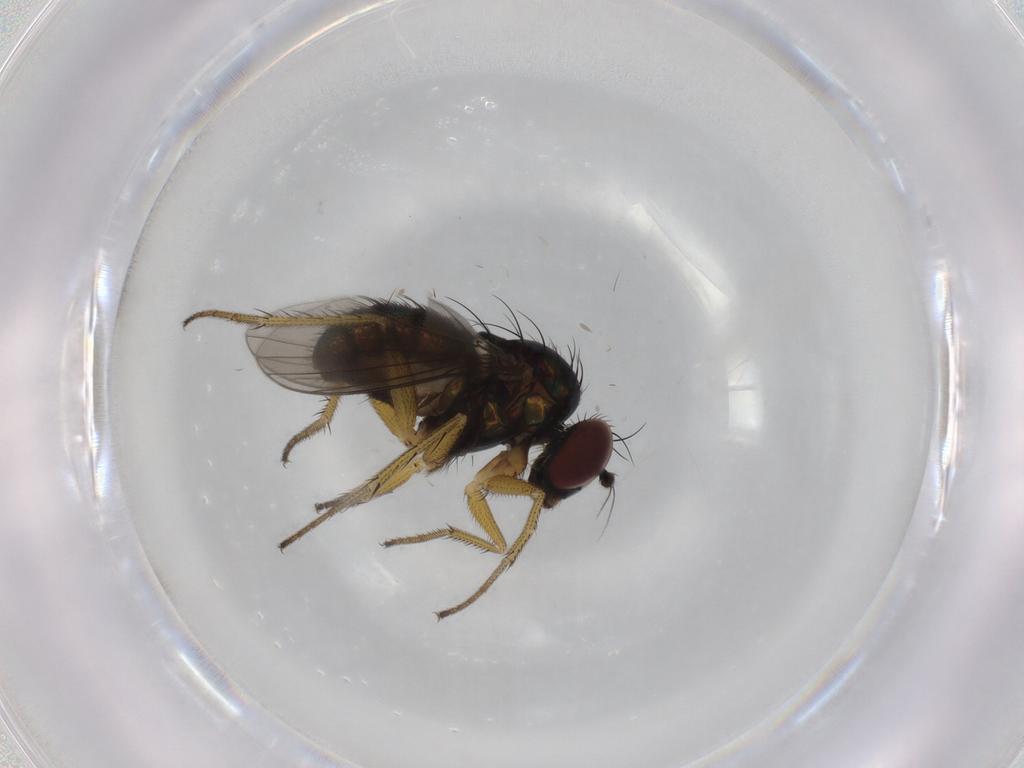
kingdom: Animalia
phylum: Arthropoda
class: Insecta
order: Diptera
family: Dolichopodidae
